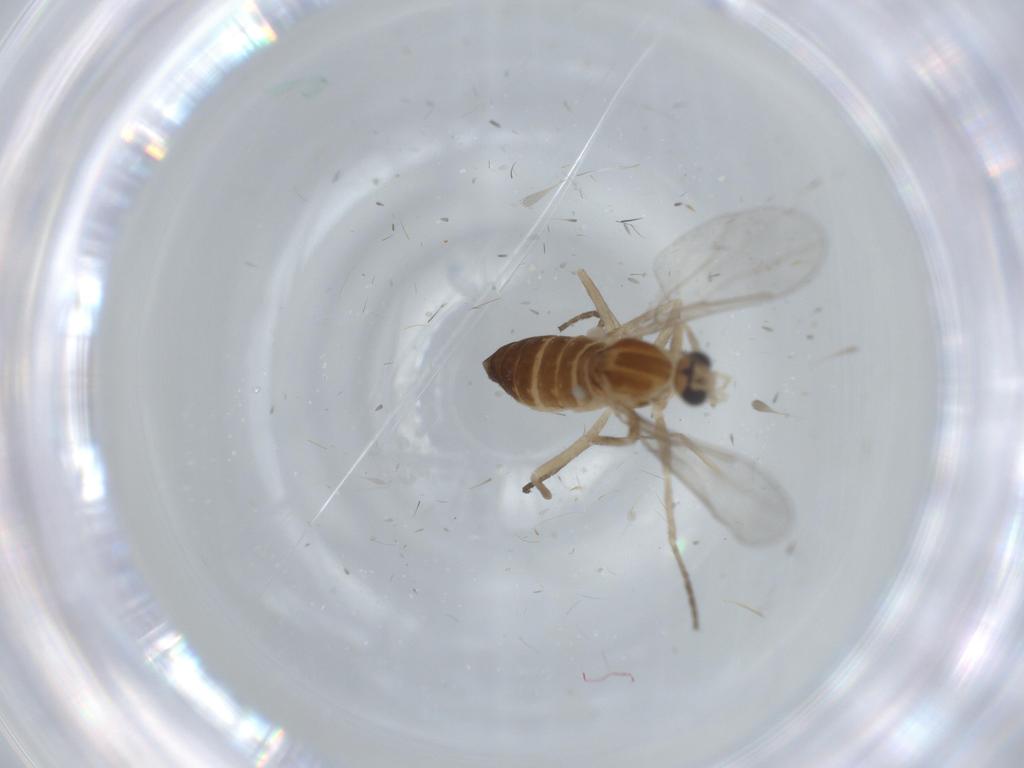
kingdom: Animalia
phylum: Arthropoda
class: Insecta
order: Diptera
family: Cecidomyiidae
